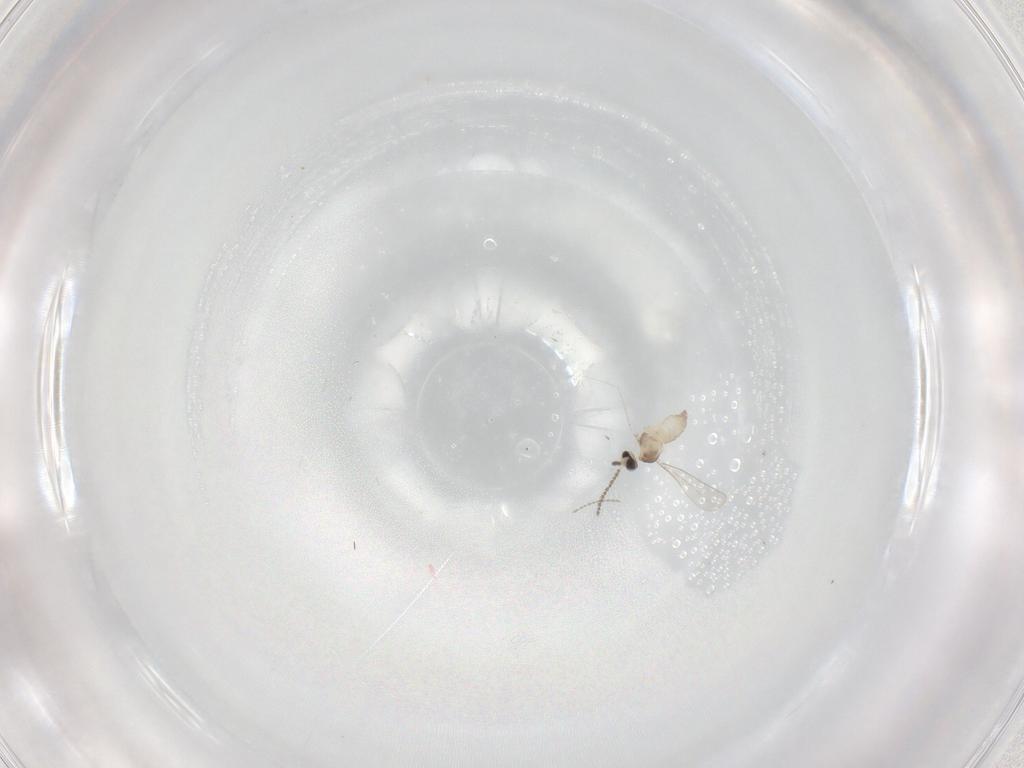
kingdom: Animalia
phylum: Arthropoda
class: Insecta
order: Diptera
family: Cecidomyiidae
